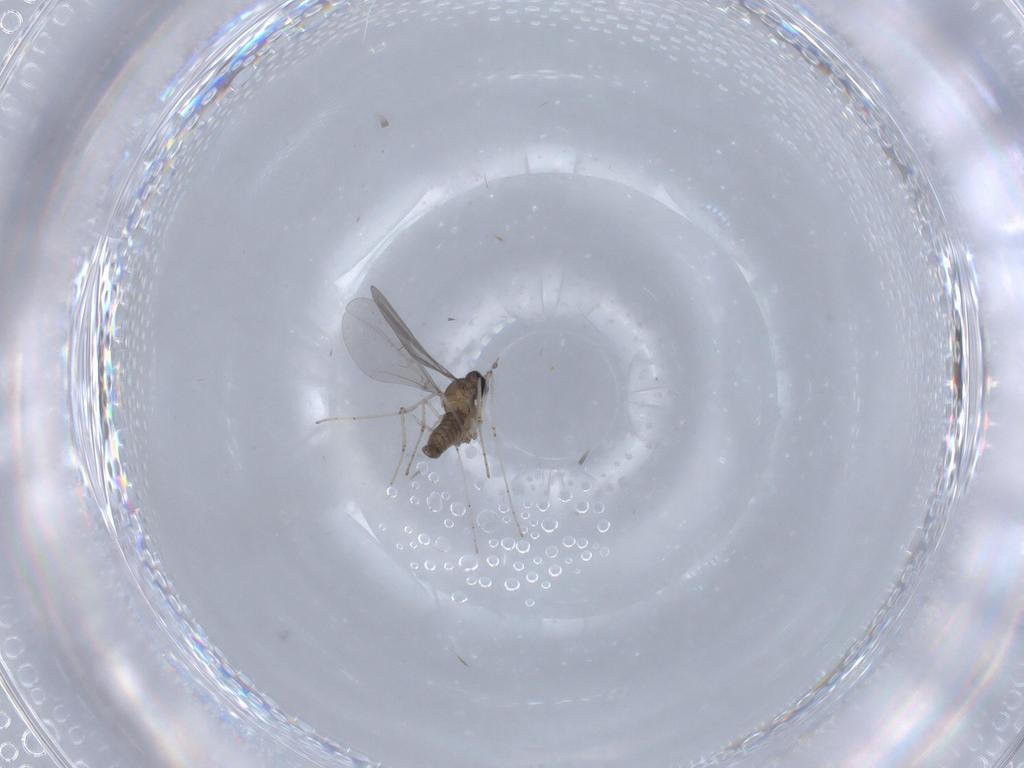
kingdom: Animalia
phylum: Arthropoda
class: Insecta
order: Diptera
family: Cecidomyiidae
